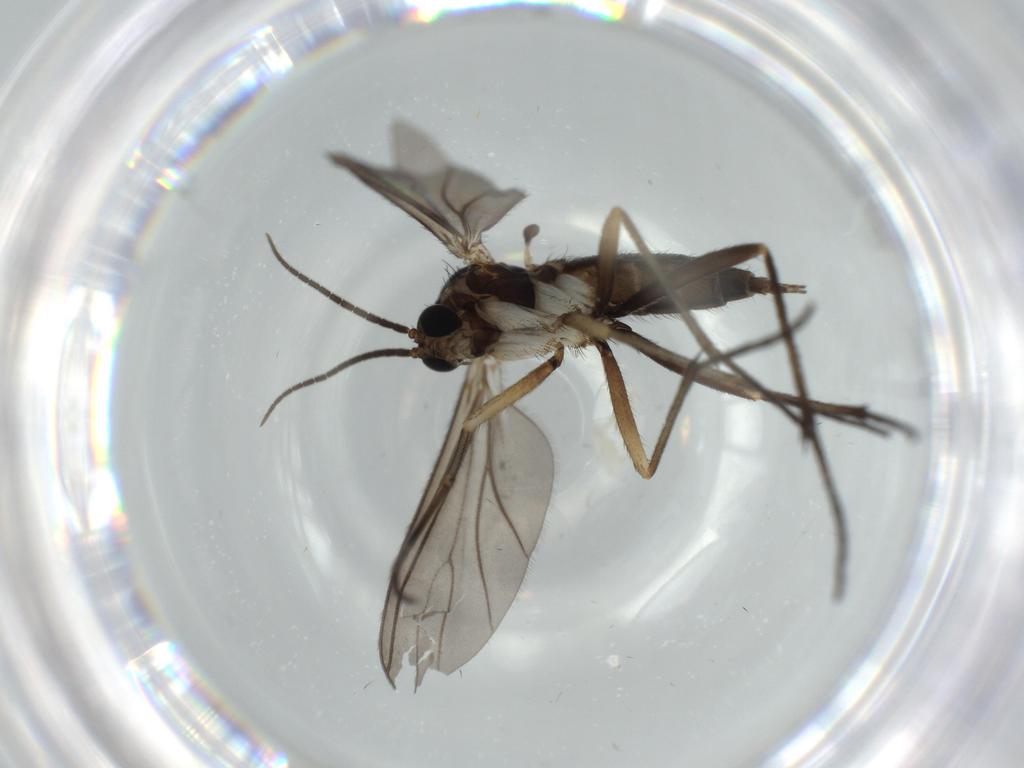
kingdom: Animalia
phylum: Arthropoda
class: Insecta
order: Diptera
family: Sciaridae
